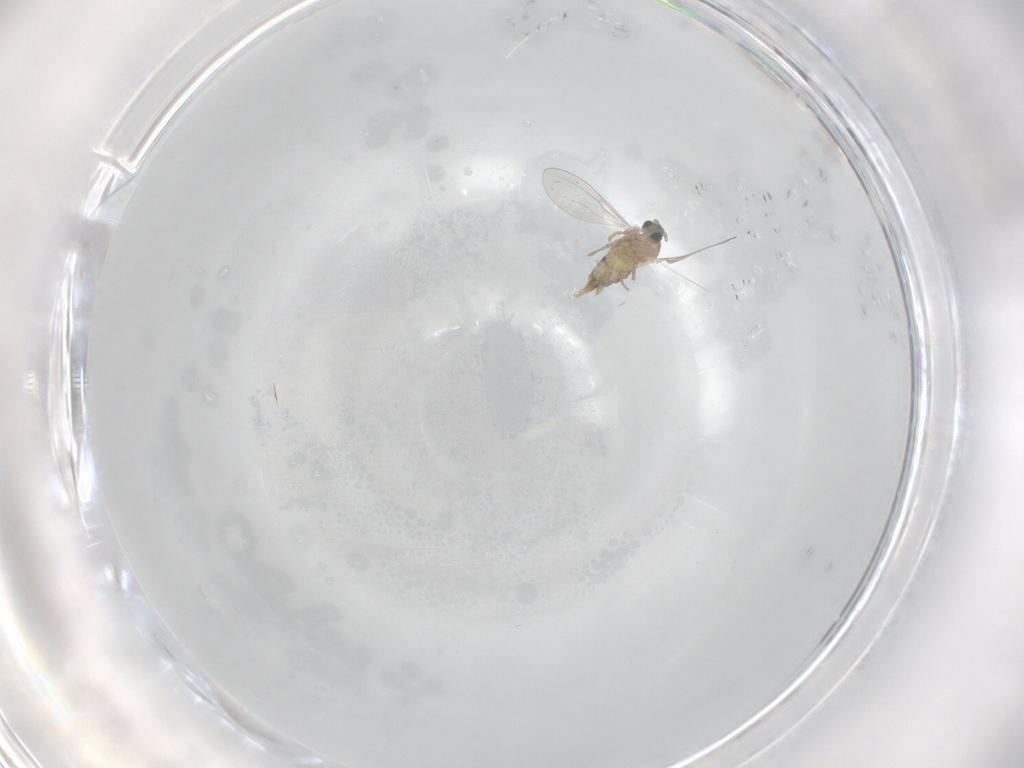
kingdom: Animalia
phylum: Arthropoda
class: Insecta
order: Diptera
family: Cecidomyiidae
